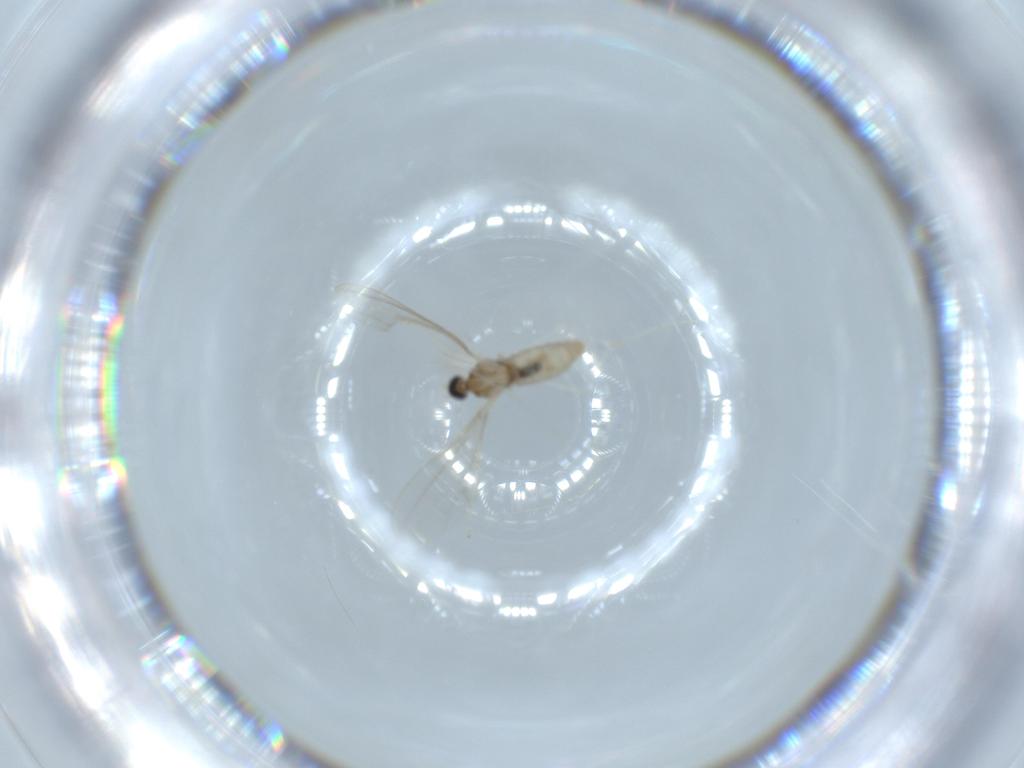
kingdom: Animalia
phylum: Arthropoda
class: Insecta
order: Diptera
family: Cecidomyiidae
